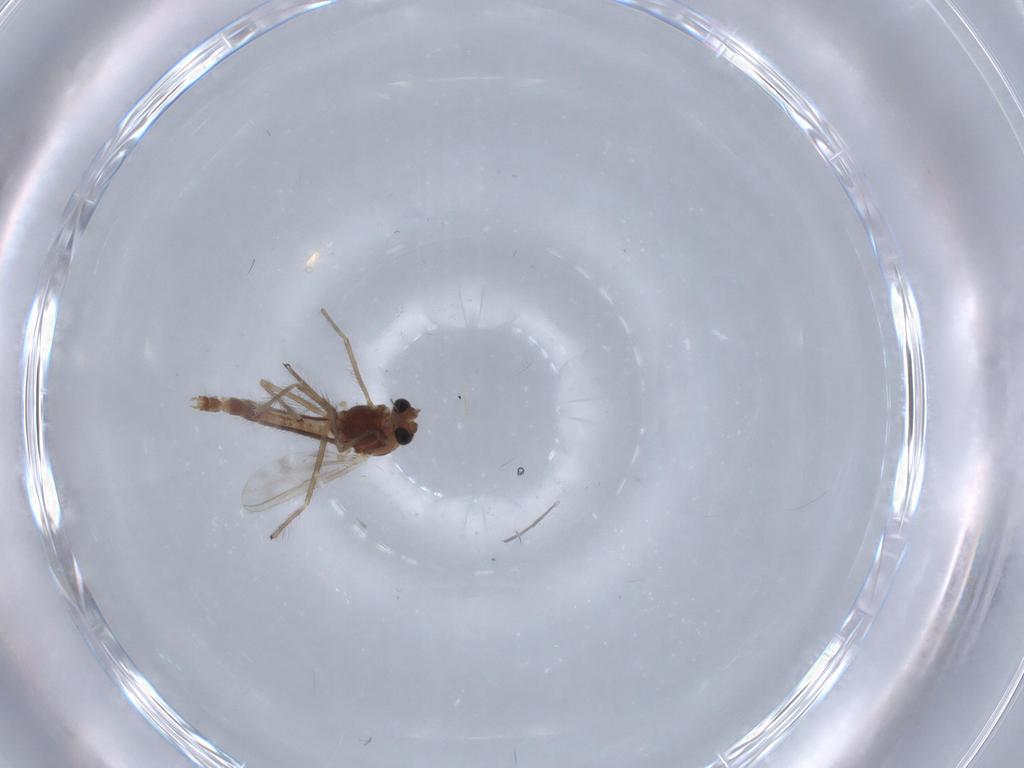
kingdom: Animalia
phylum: Arthropoda
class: Insecta
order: Diptera
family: Chironomidae
